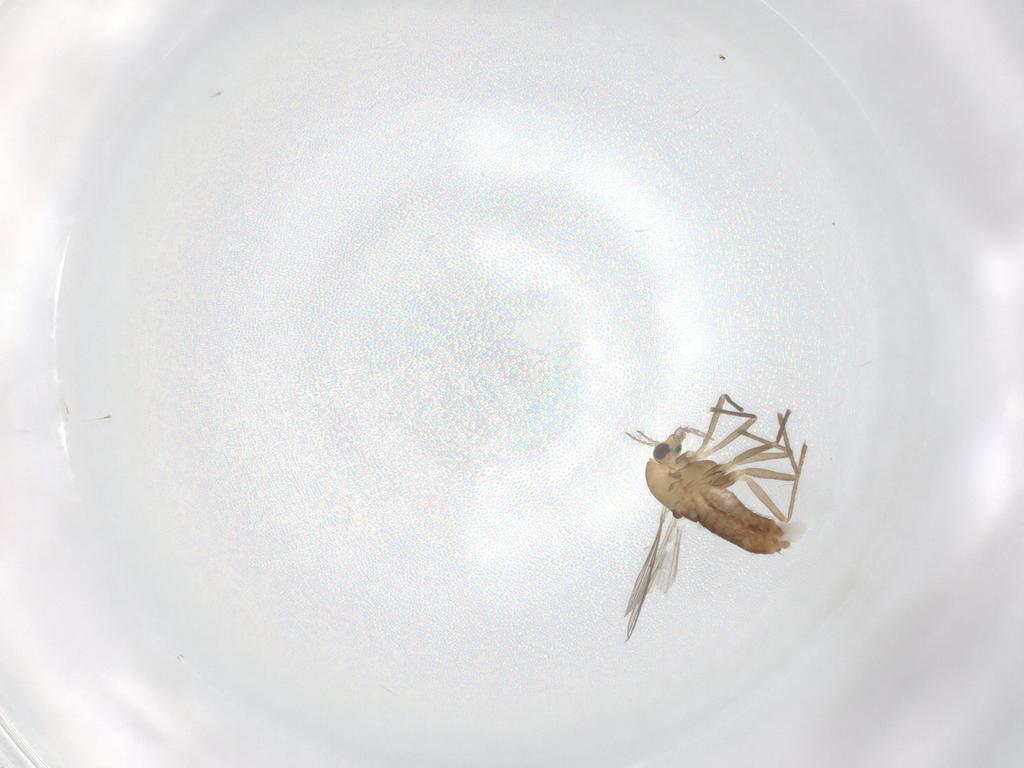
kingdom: Animalia
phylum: Arthropoda
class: Insecta
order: Diptera
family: Chironomidae
